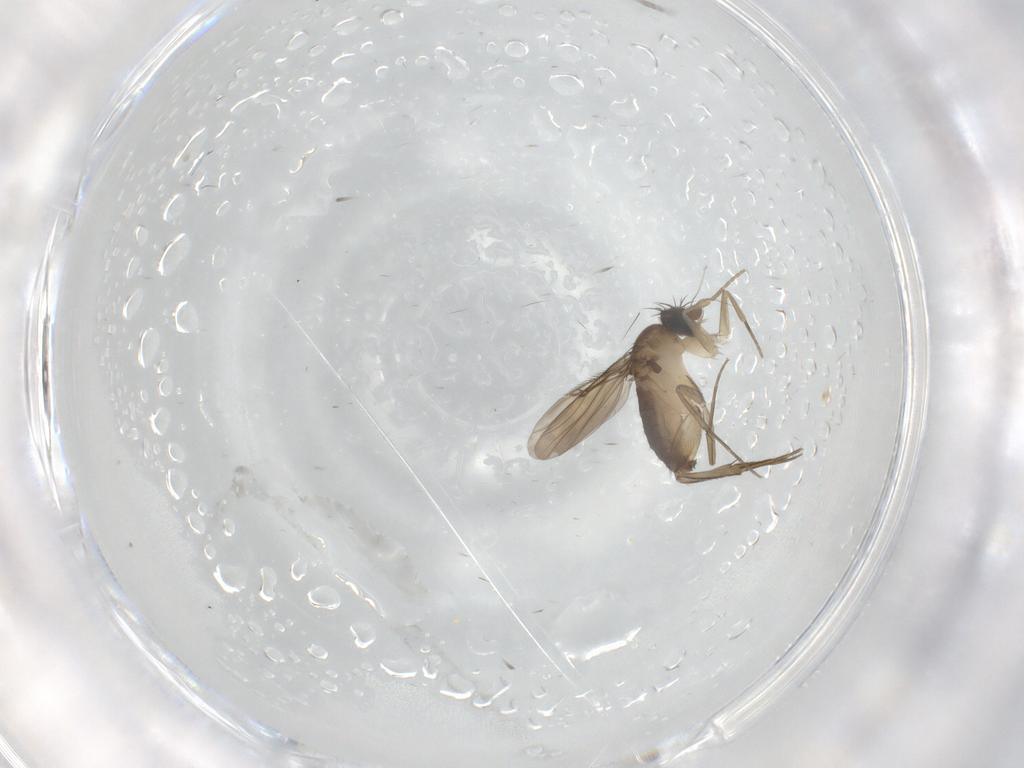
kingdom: Animalia
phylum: Arthropoda
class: Insecta
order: Diptera
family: Phoridae
